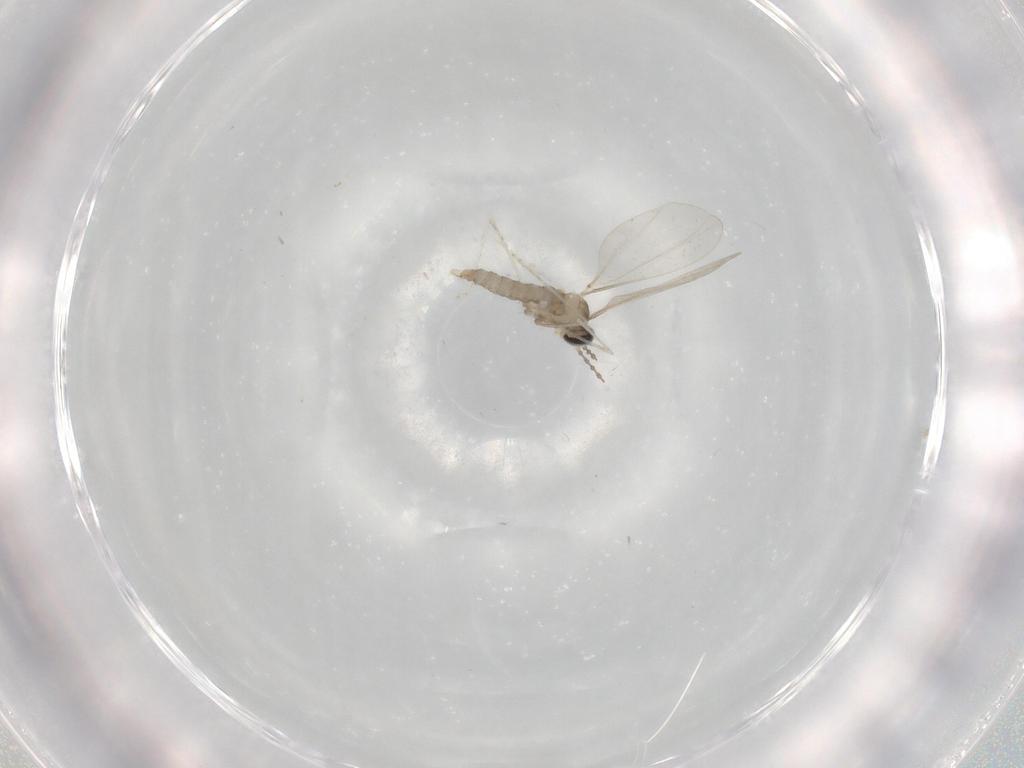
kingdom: Animalia
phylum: Arthropoda
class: Insecta
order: Diptera
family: Cecidomyiidae
